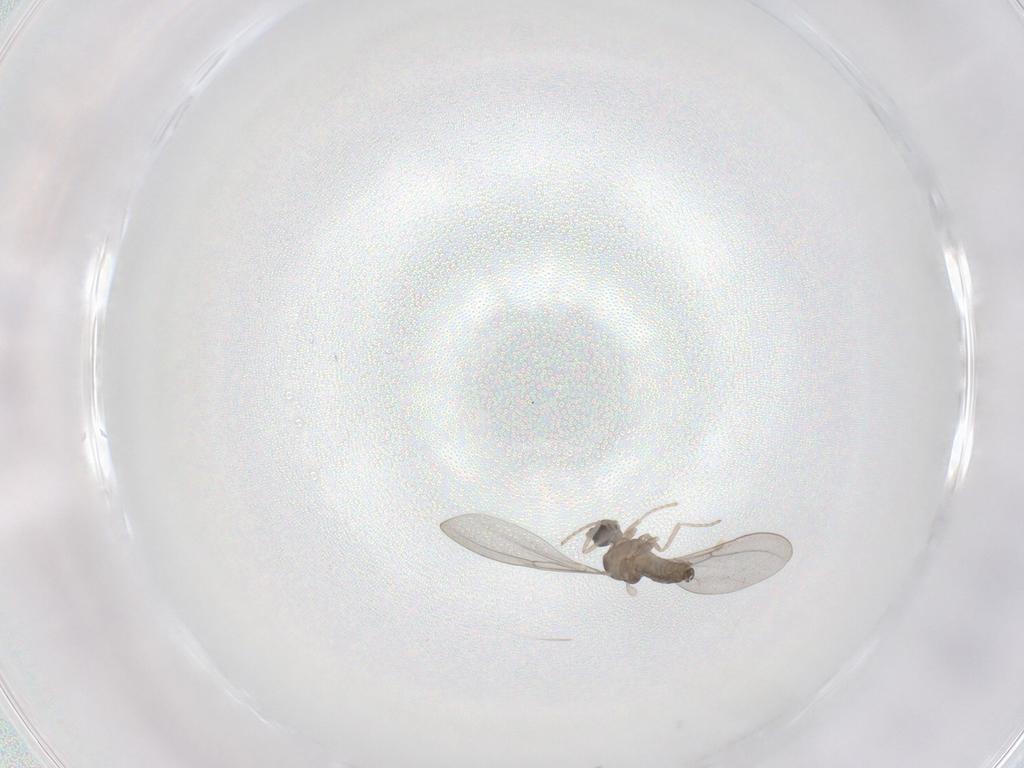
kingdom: Animalia
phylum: Arthropoda
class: Insecta
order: Diptera
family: Cecidomyiidae
